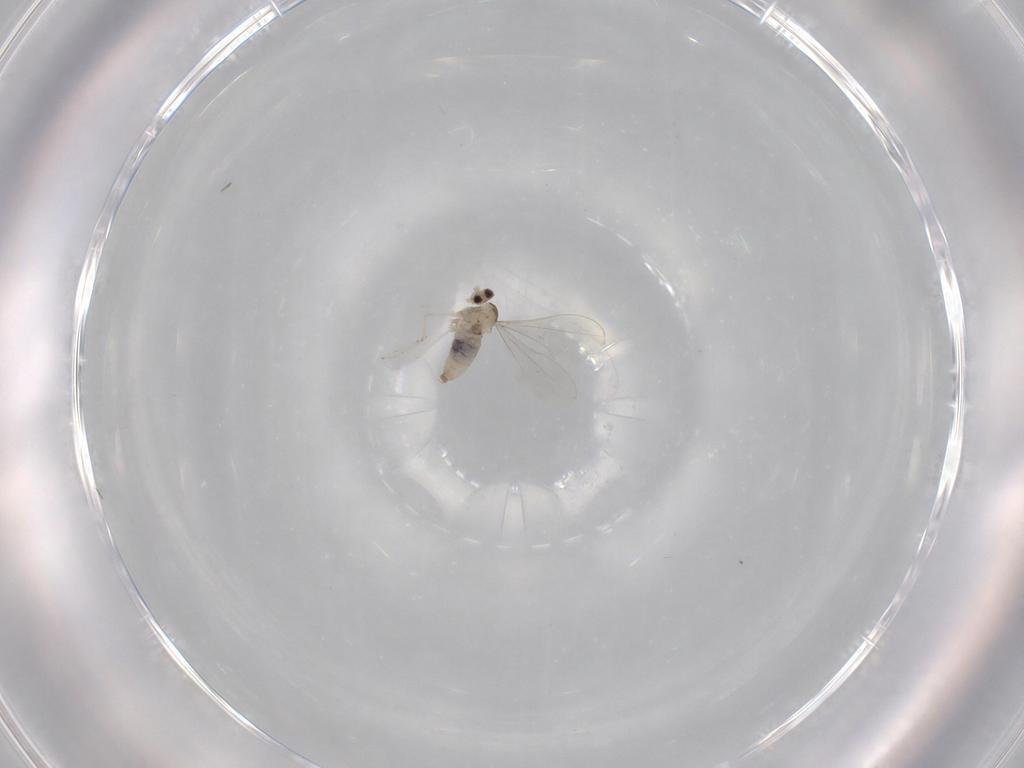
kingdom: Animalia
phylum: Arthropoda
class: Insecta
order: Diptera
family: Cecidomyiidae
